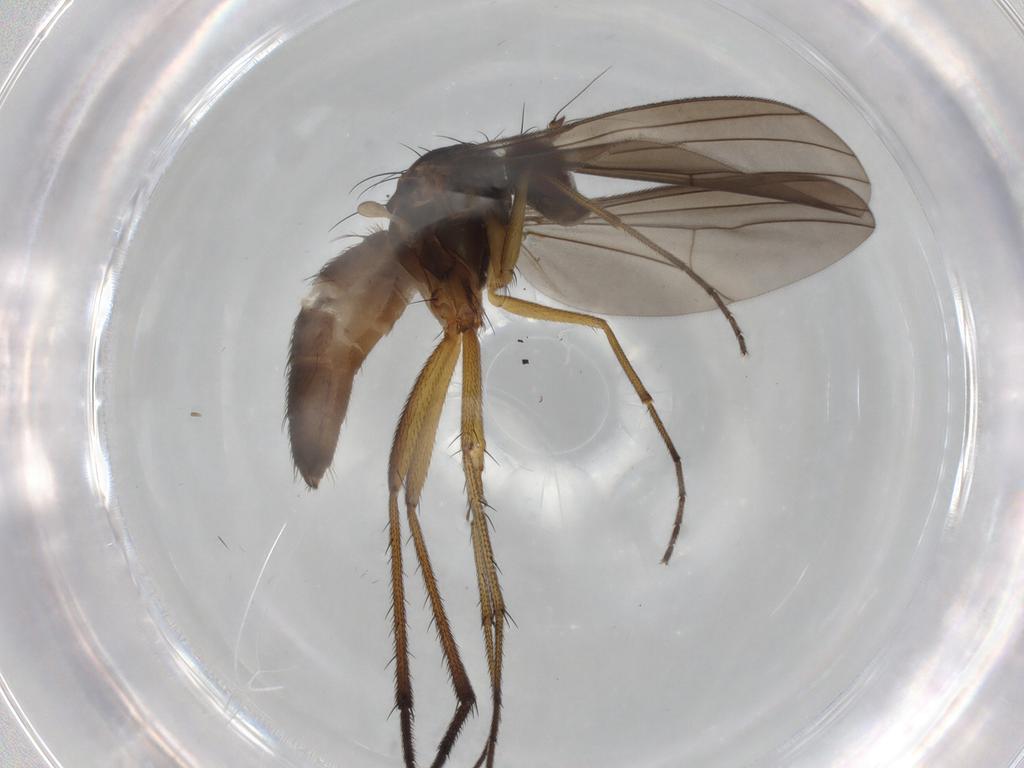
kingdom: Animalia
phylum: Arthropoda
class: Insecta
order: Diptera
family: Dolichopodidae
